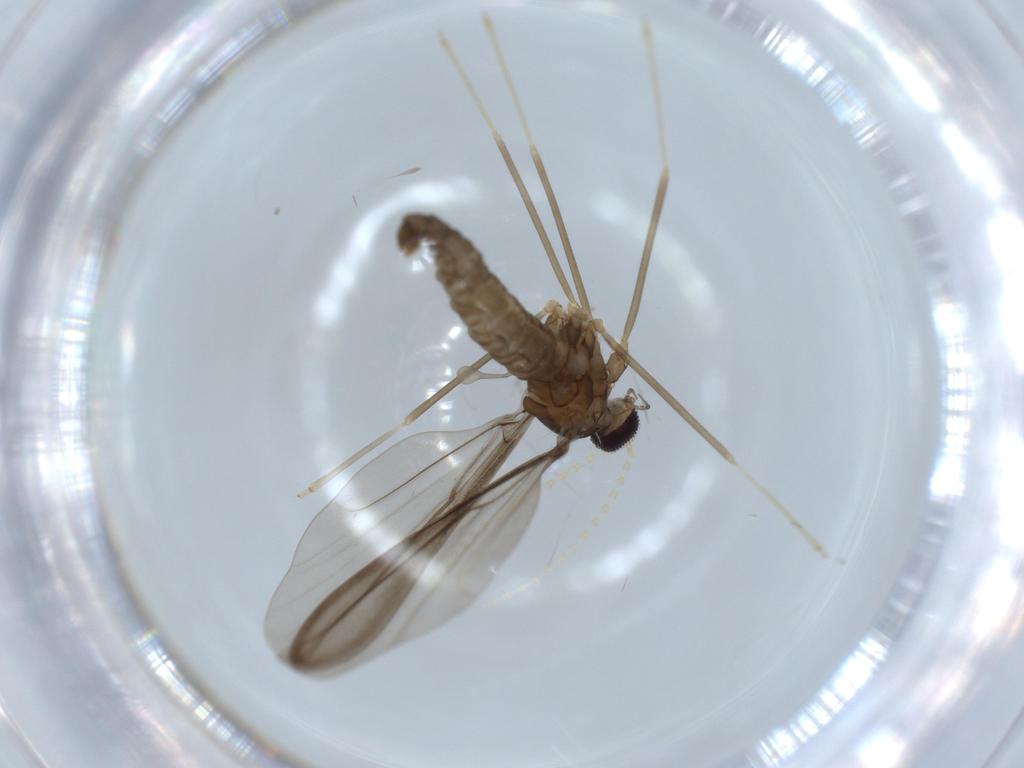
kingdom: Animalia
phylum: Arthropoda
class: Insecta
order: Diptera
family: Cecidomyiidae
